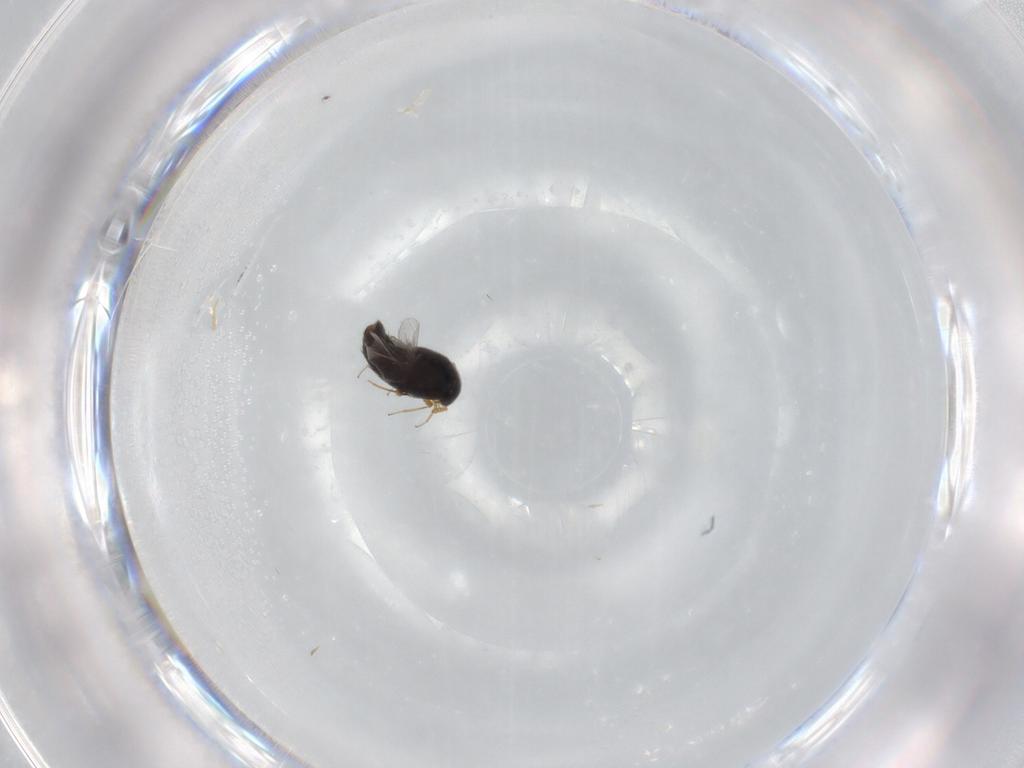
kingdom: Animalia
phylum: Arthropoda
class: Insecta
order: Coleoptera
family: Staphylinidae
